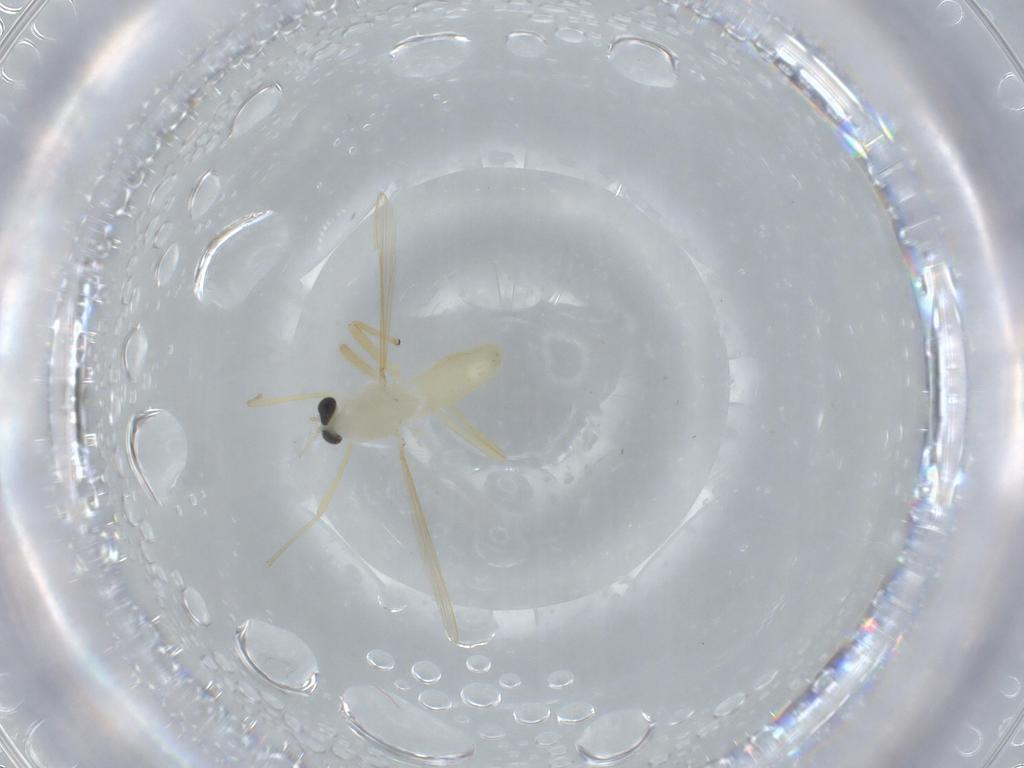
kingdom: Animalia
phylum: Arthropoda
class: Insecta
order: Diptera
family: Chironomidae
